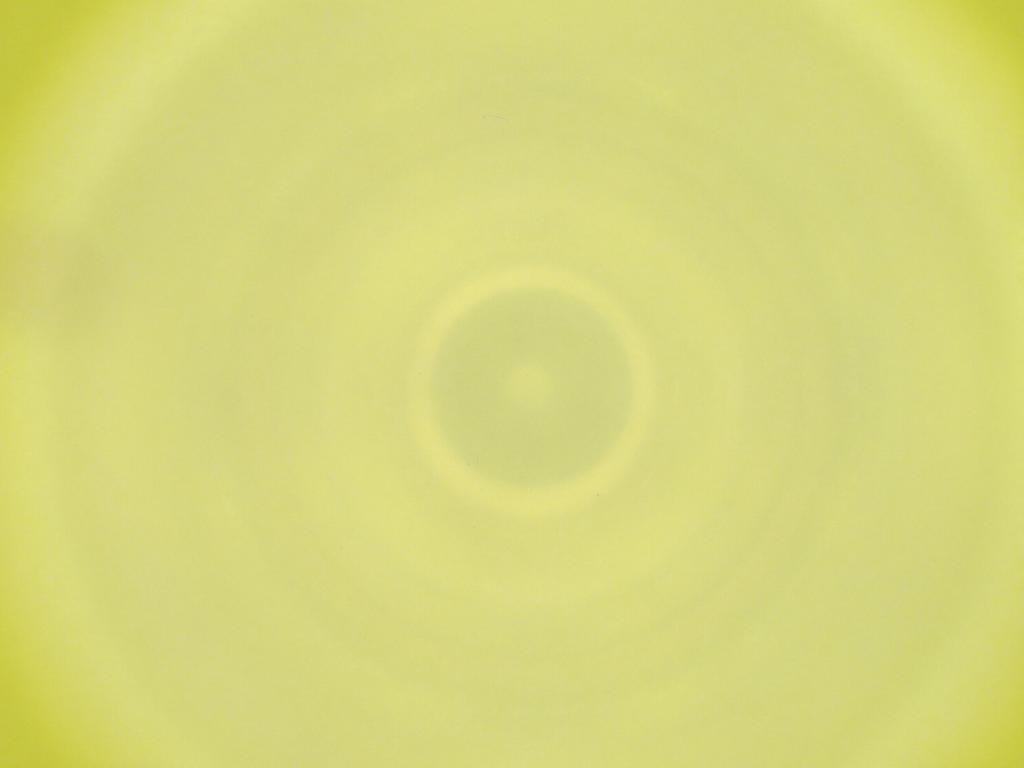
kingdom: Animalia
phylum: Arthropoda
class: Insecta
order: Diptera
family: Cecidomyiidae
